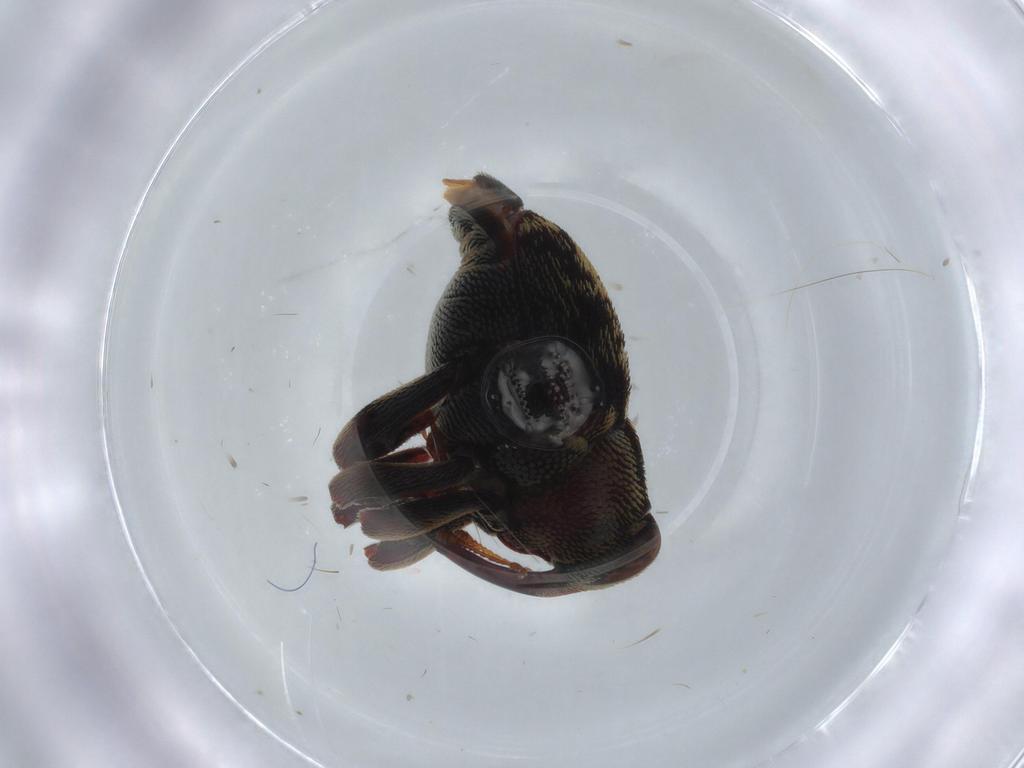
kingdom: Animalia
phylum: Arthropoda
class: Insecta
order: Coleoptera
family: Curculionidae
